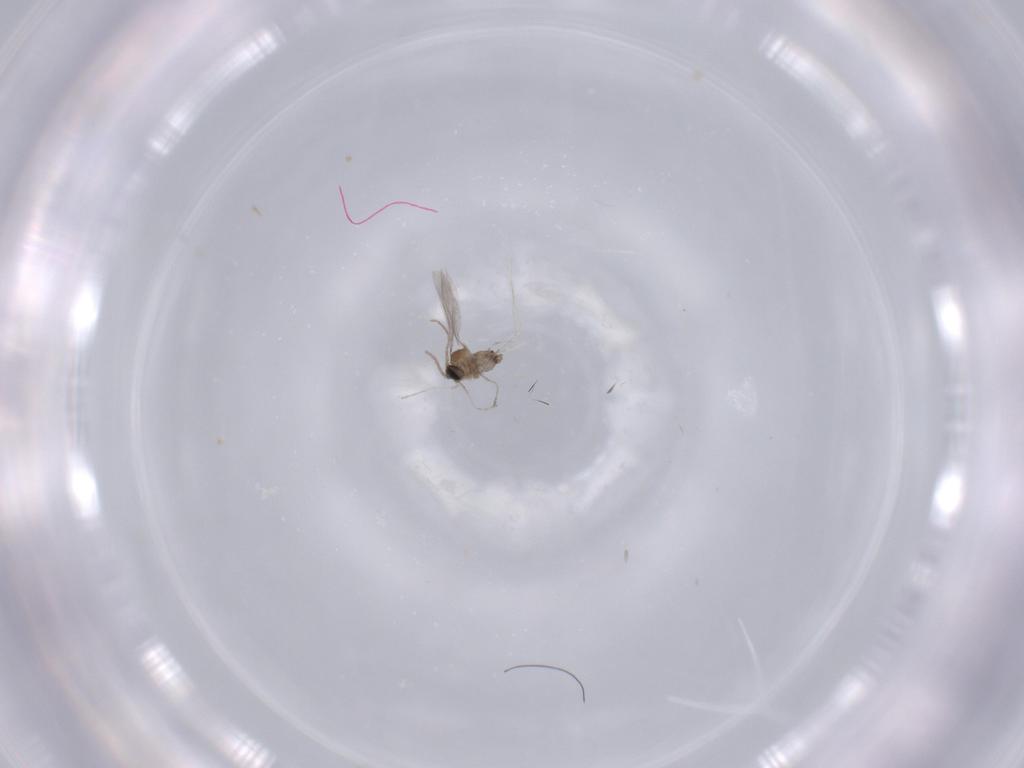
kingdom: Animalia
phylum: Arthropoda
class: Insecta
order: Diptera
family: Cecidomyiidae
